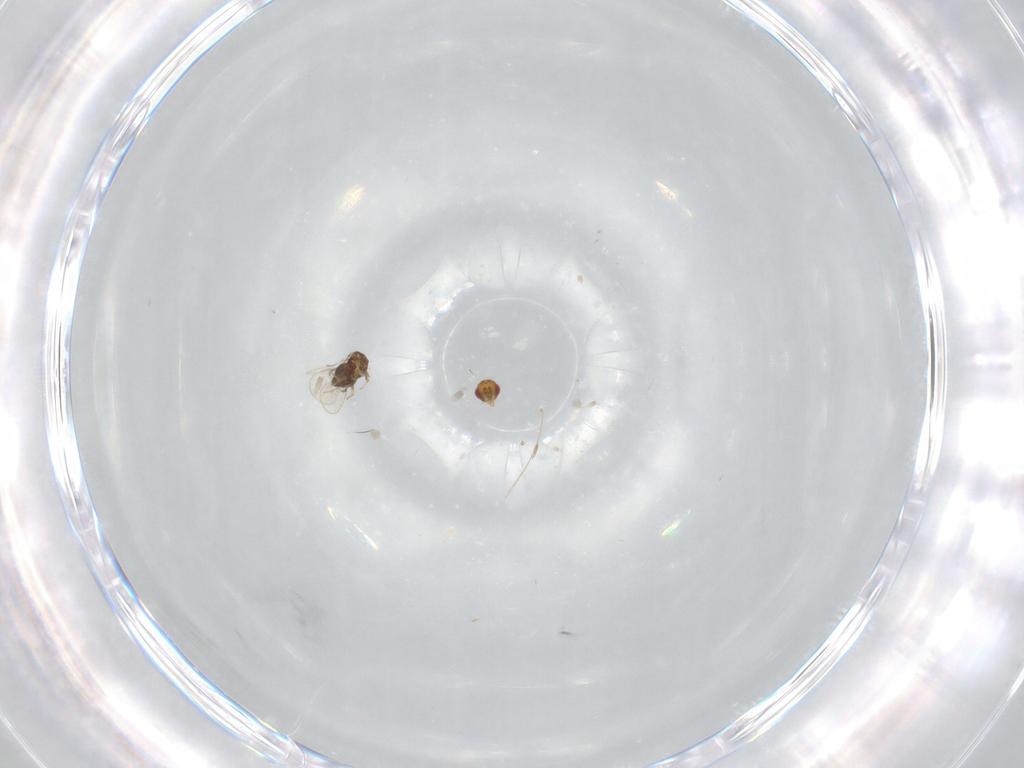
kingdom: Animalia
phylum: Arthropoda
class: Insecta
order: Hymenoptera
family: Trichogrammatidae
